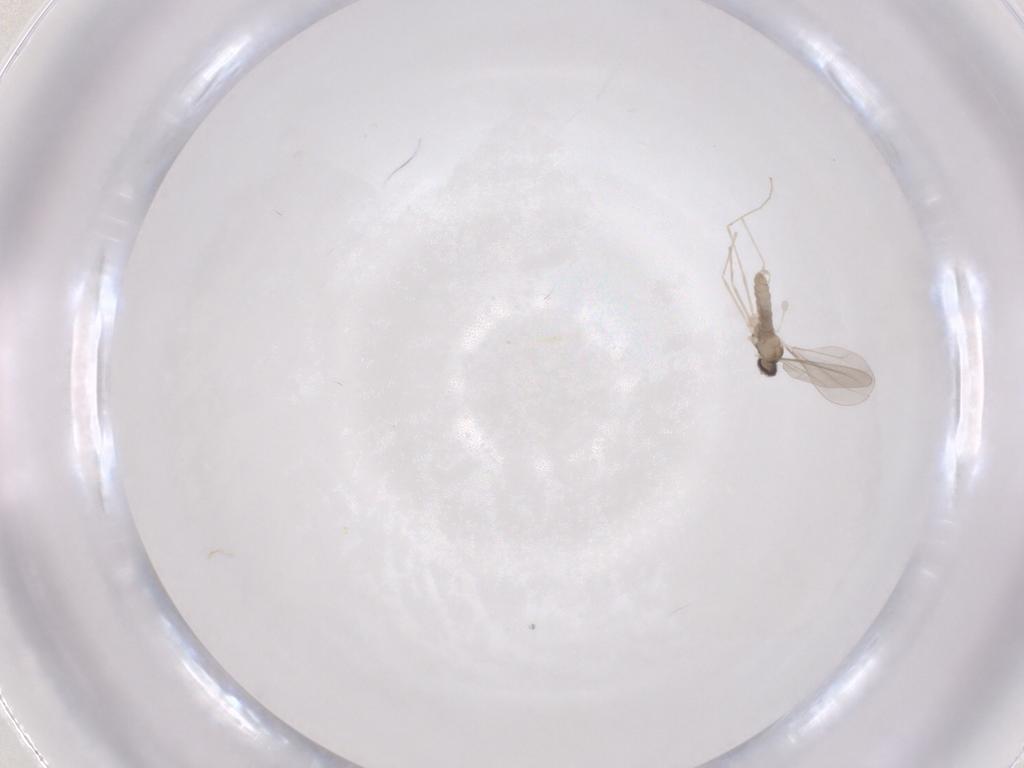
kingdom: Animalia
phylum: Arthropoda
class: Insecta
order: Diptera
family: Cecidomyiidae
